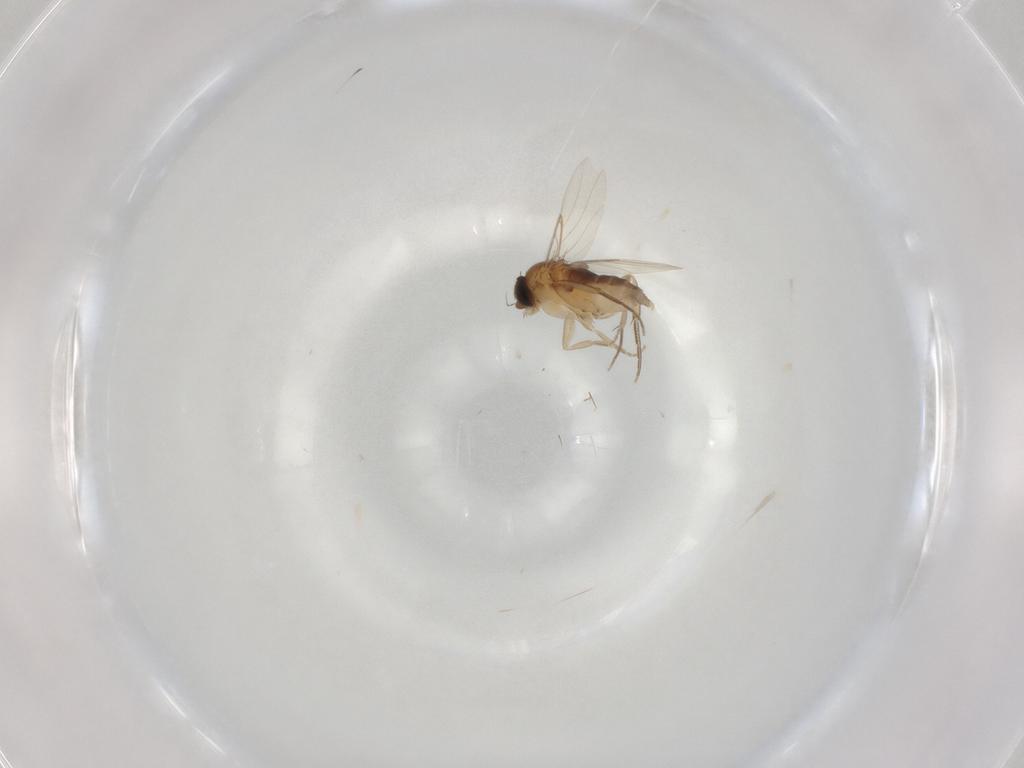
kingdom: Animalia
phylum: Arthropoda
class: Insecta
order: Diptera
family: Phoridae
